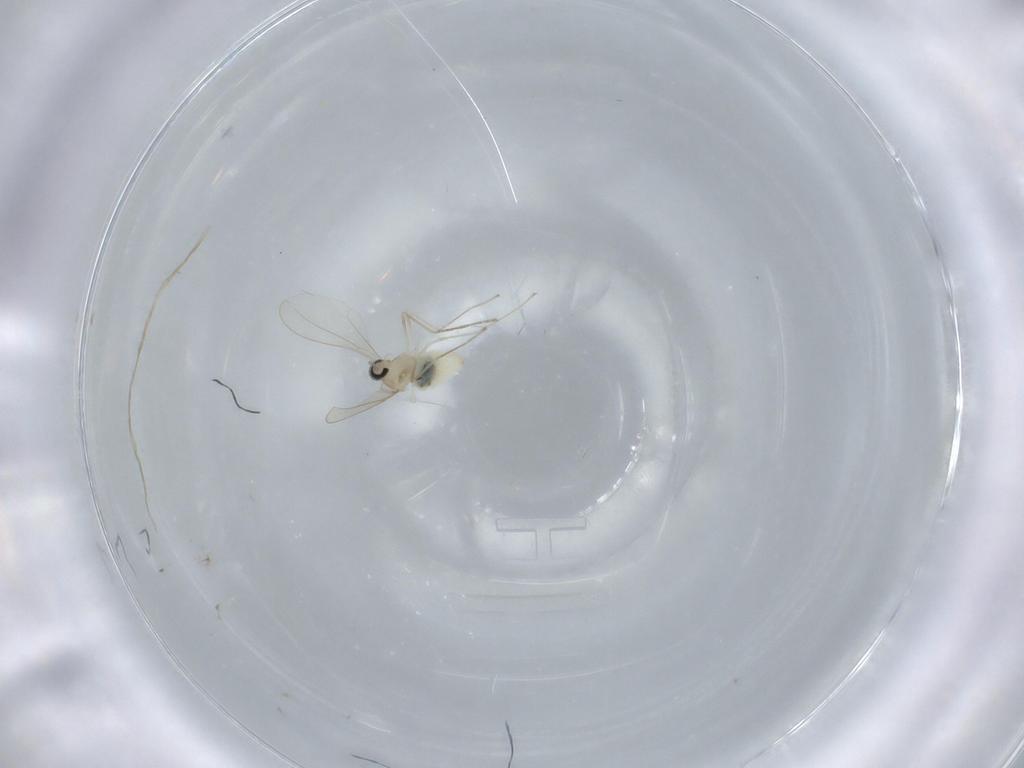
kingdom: Animalia
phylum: Arthropoda
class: Insecta
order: Diptera
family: Cecidomyiidae
